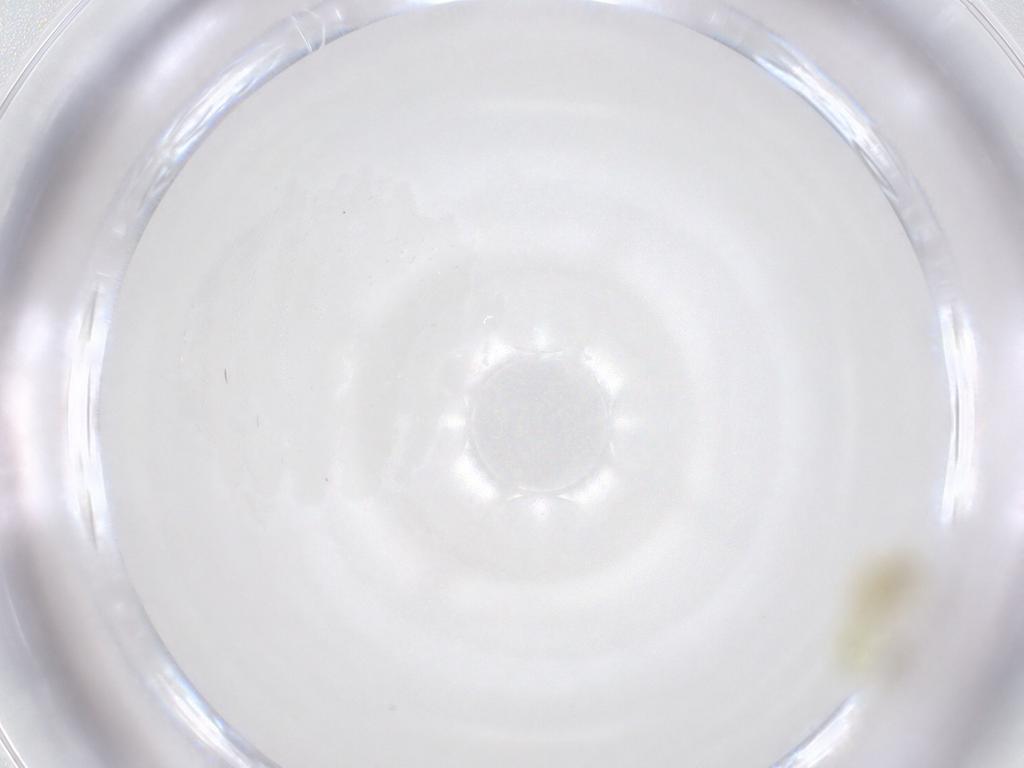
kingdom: Animalia
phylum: Arthropoda
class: Insecta
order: Hemiptera
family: Aleyrodidae
